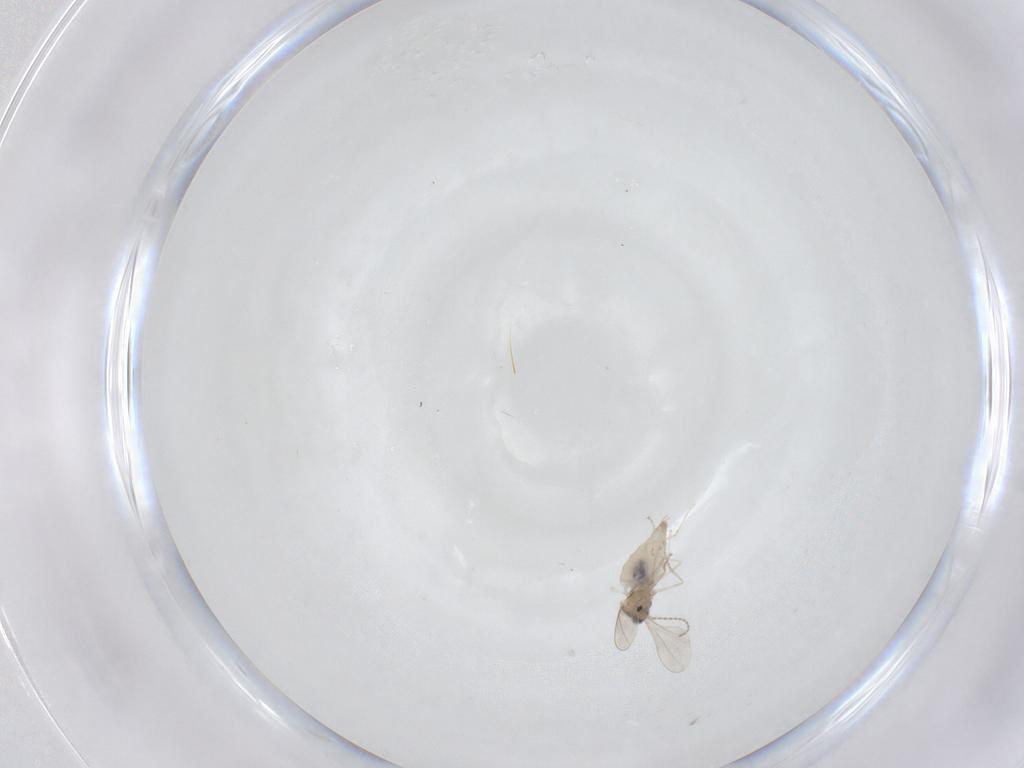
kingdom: Animalia
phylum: Arthropoda
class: Insecta
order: Diptera
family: Cecidomyiidae
